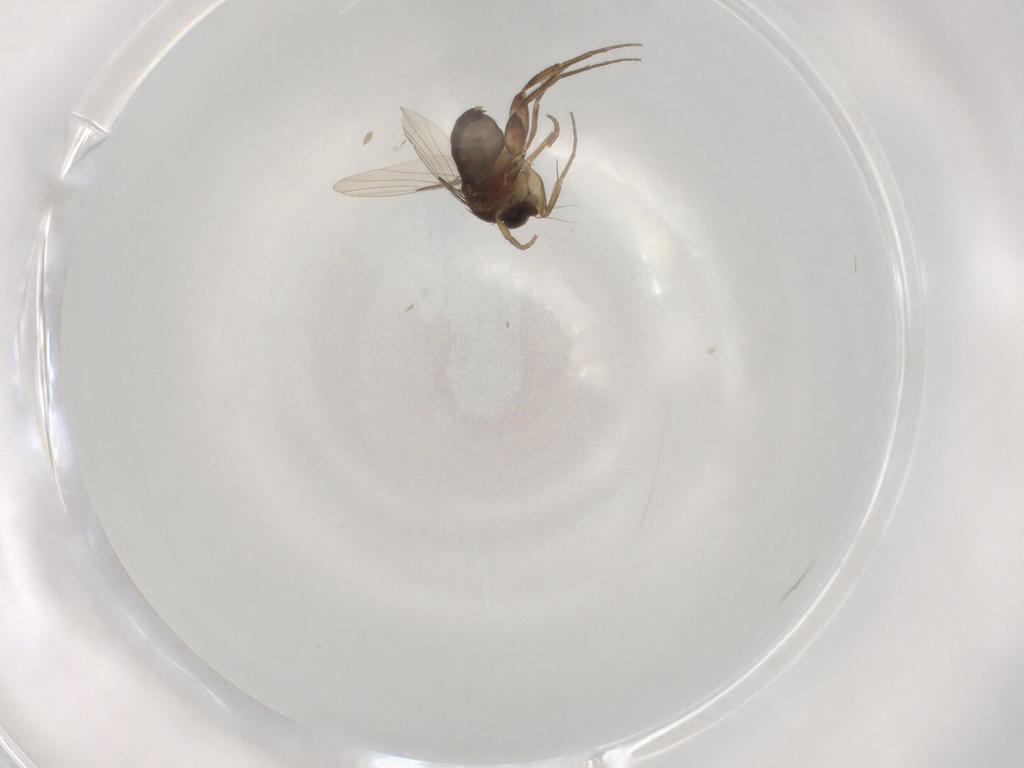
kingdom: Animalia
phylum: Arthropoda
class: Insecta
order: Diptera
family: Phoridae
